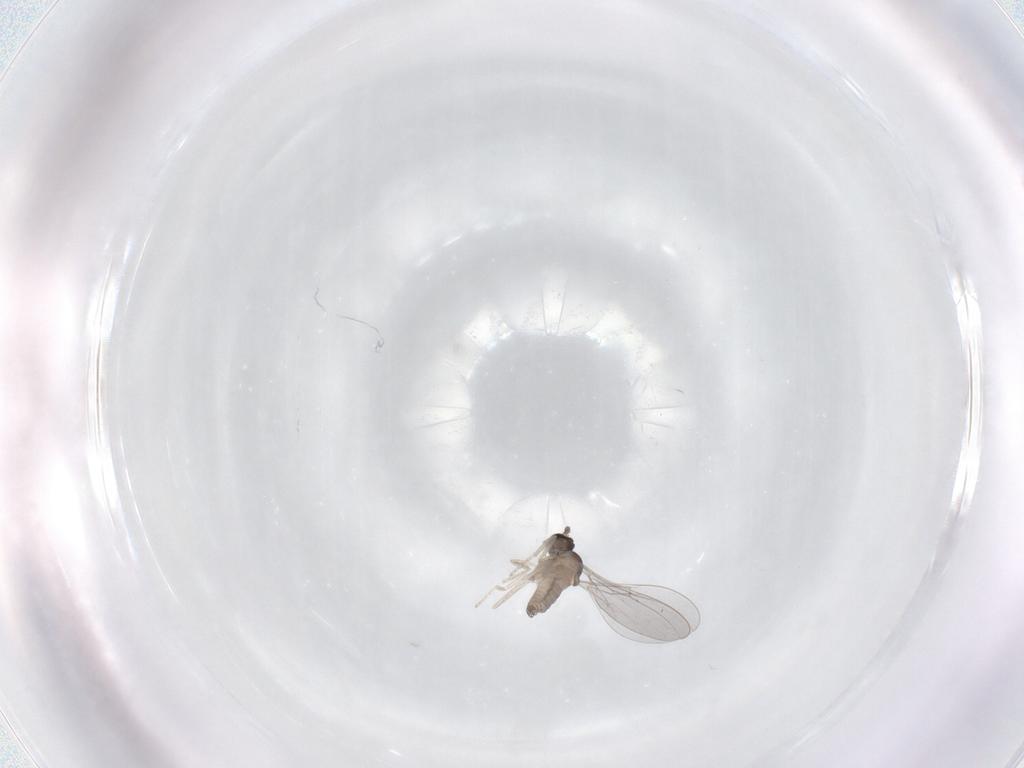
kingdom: Animalia
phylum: Arthropoda
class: Insecta
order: Diptera
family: Cecidomyiidae
